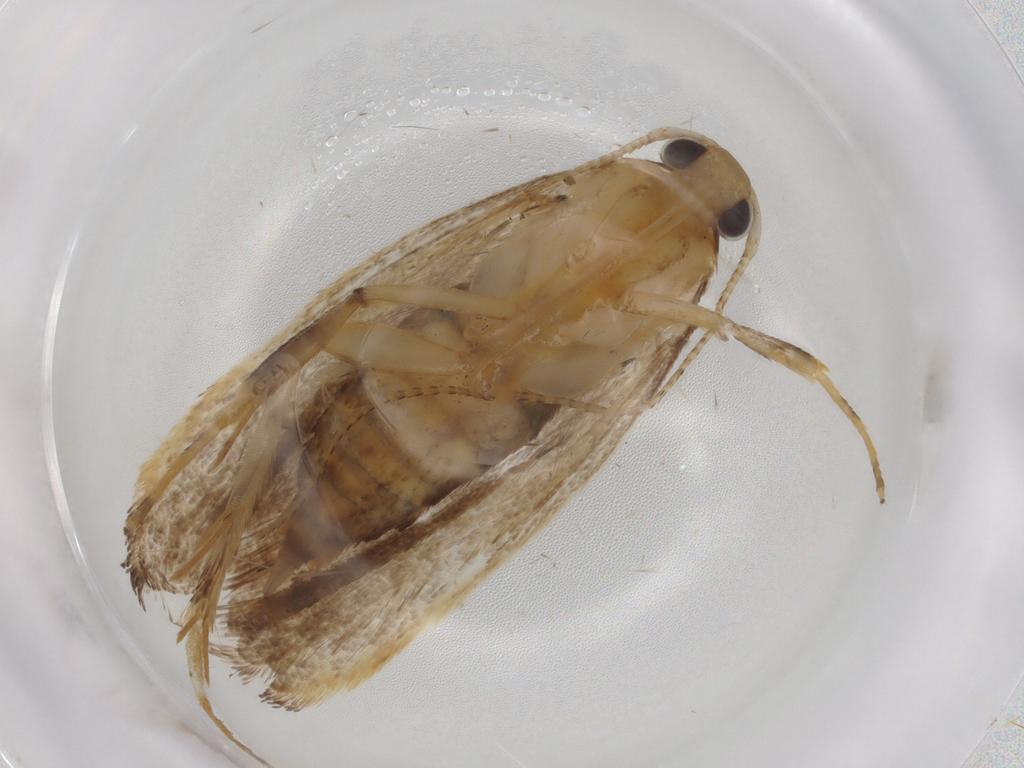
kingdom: Animalia
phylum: Arthropoda
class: Insecta
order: Lepidoptera
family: Lecithoceridae
